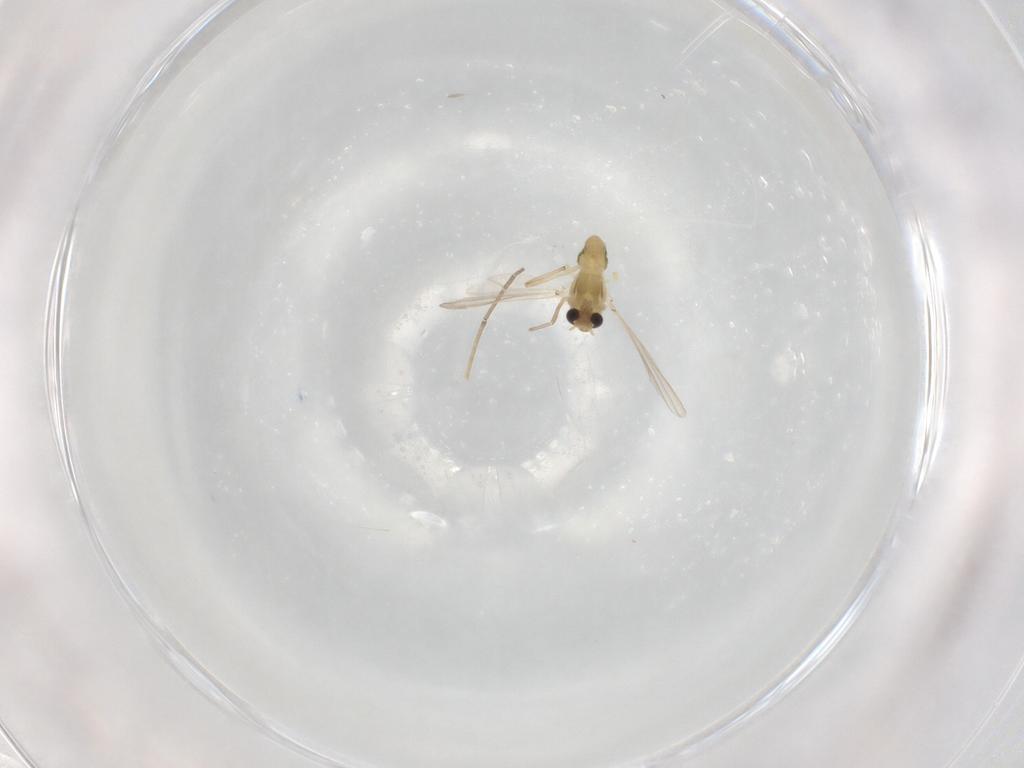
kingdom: Animalia
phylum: Arthropoda
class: Insecta
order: Diptera
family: Chironomidae
